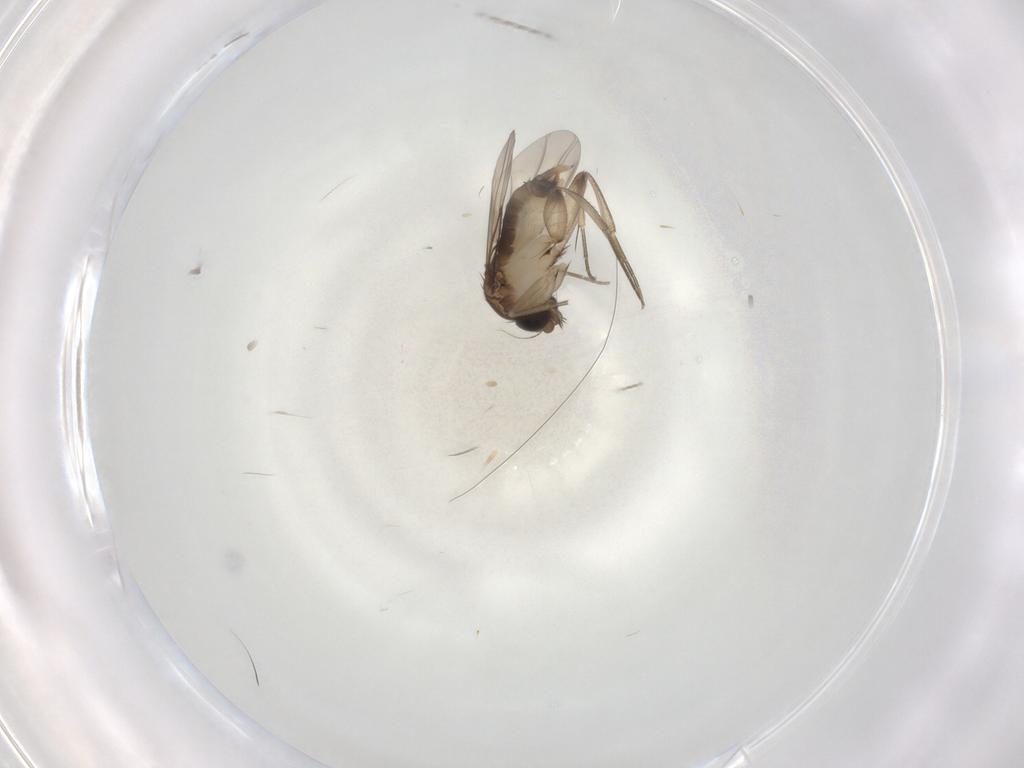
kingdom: Animalia
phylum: Arthropoda
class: Insecta
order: Diptera
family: Phoridae
